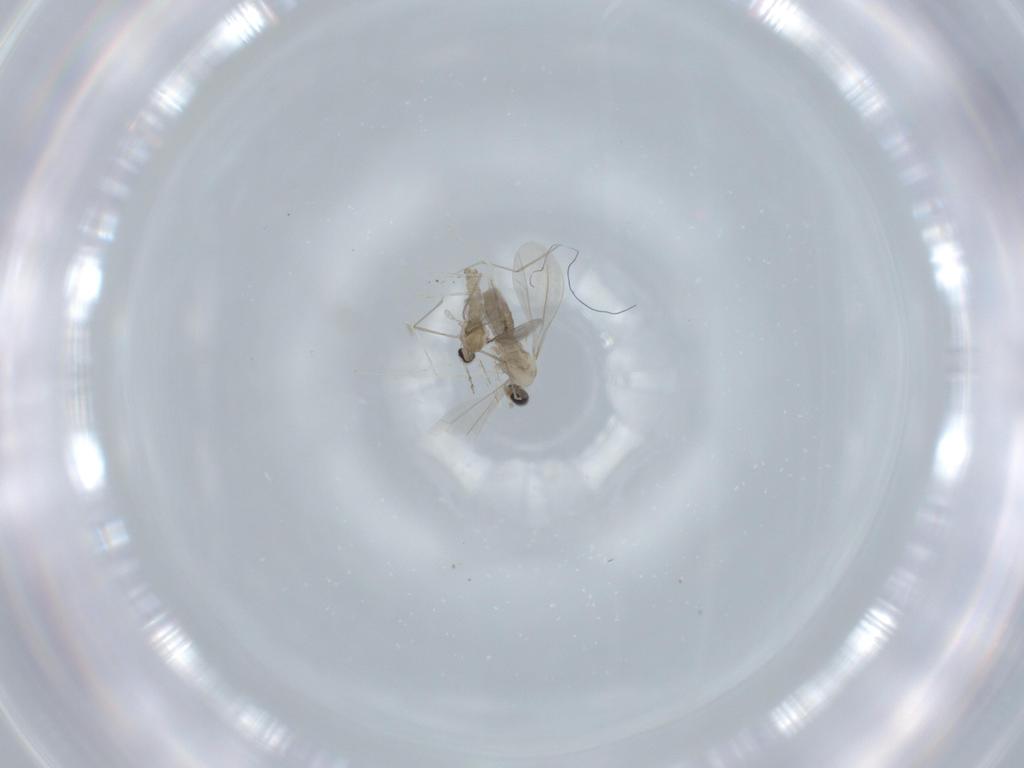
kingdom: Animalia
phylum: Arthropoda
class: Insecta
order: Diptera
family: Cecidomyiidae
